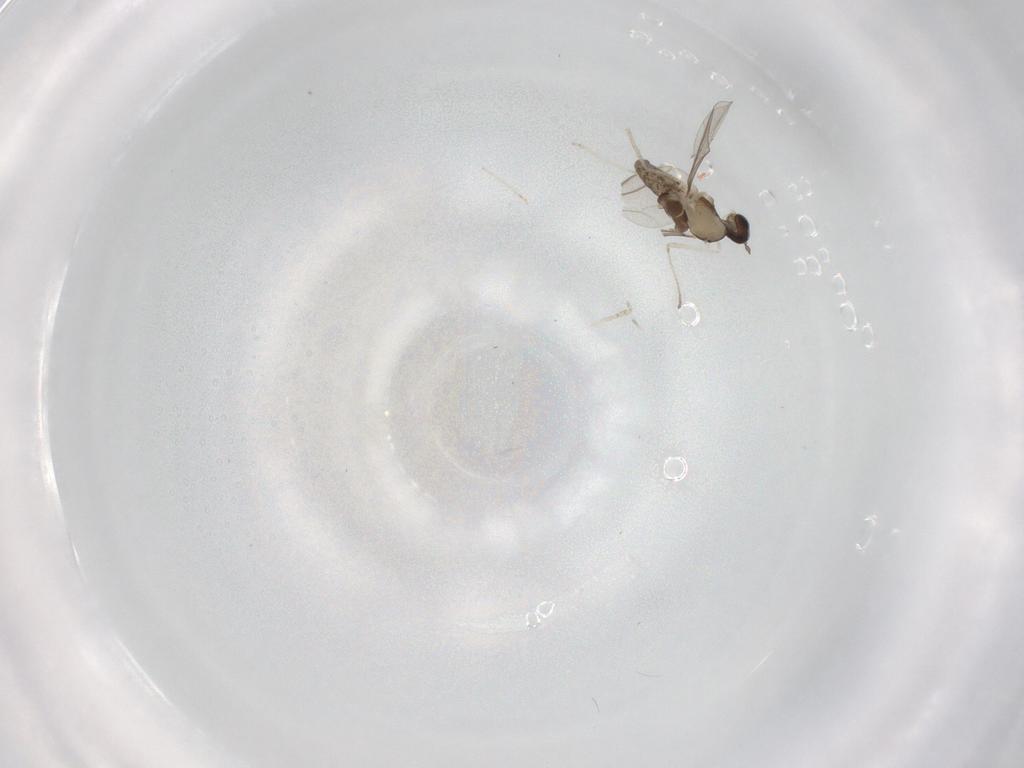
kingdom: Animalia
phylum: Arthropoda
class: Insecta
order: Diptera
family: Cecidomyiidae
